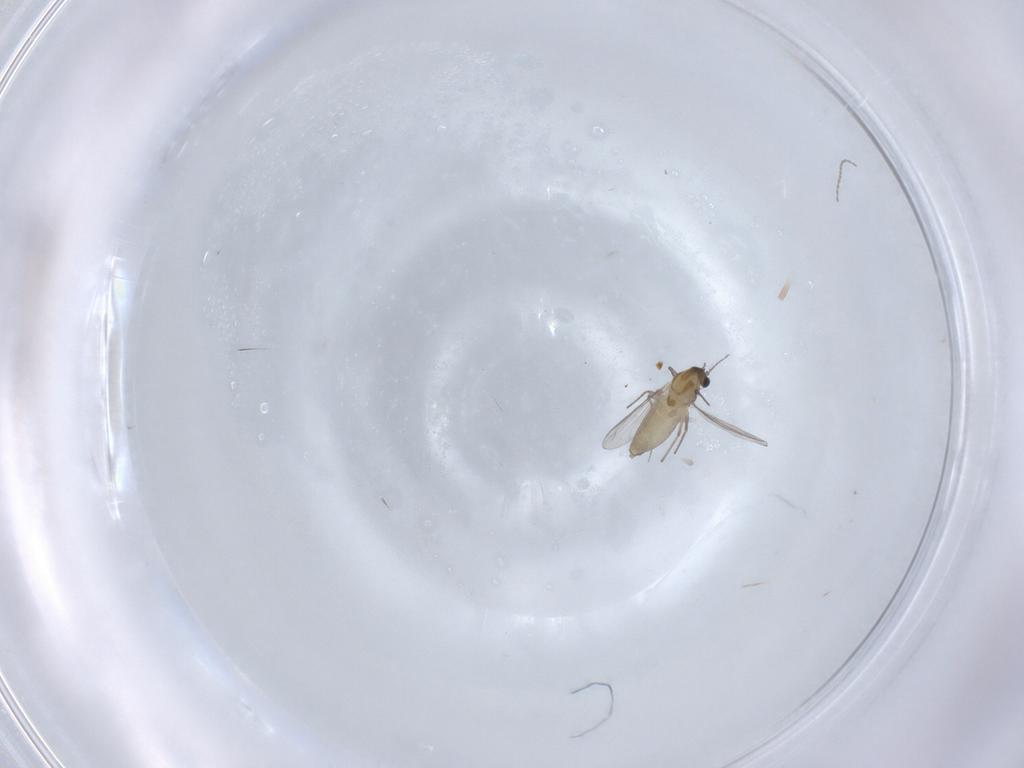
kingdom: Animalia
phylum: Arthropoda
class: Insecta
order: Diptera
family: Chironomidae
